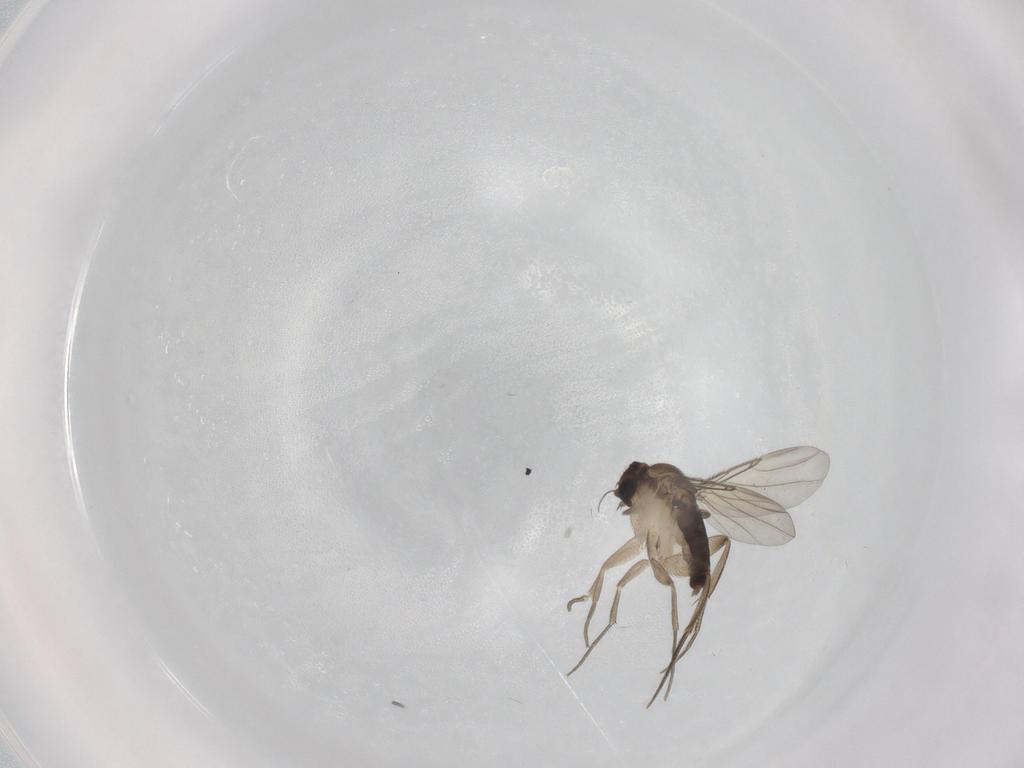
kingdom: Animalia
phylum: Arthropoda
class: Insecta
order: Diptera
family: Phoridae
